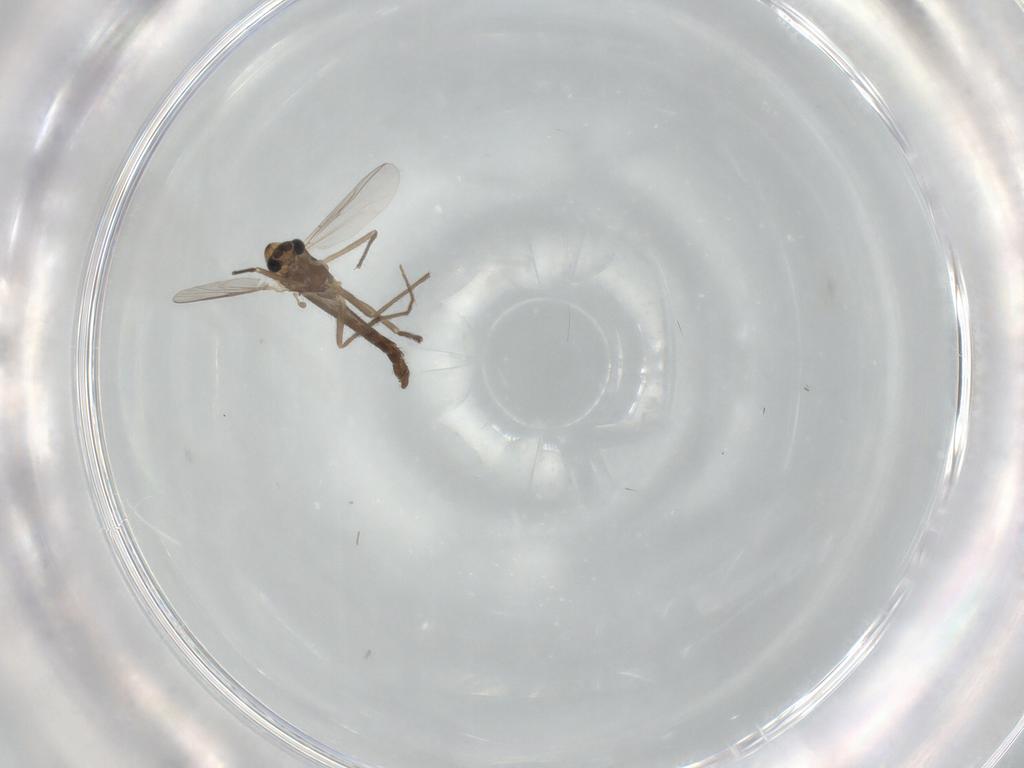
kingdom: Animalia
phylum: Arthropoda
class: Insecta
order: Diptera
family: Chironomidae
